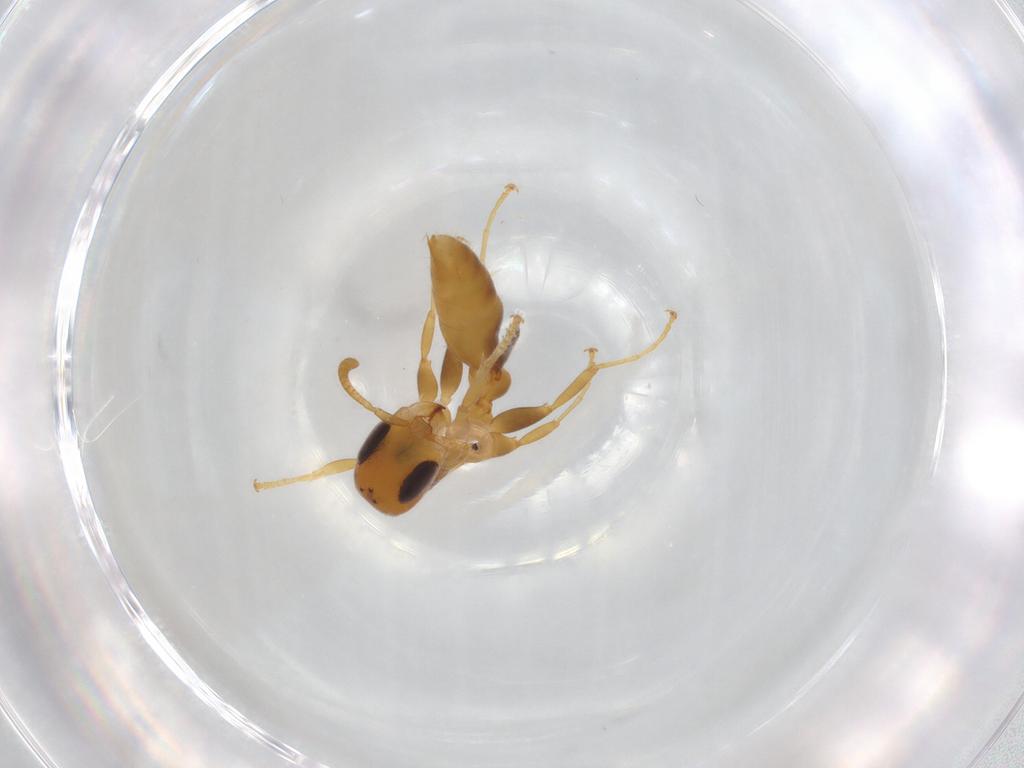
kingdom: Animalia
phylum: Arthropoda
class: Insecta
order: Hymenoptera
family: Formicidae
